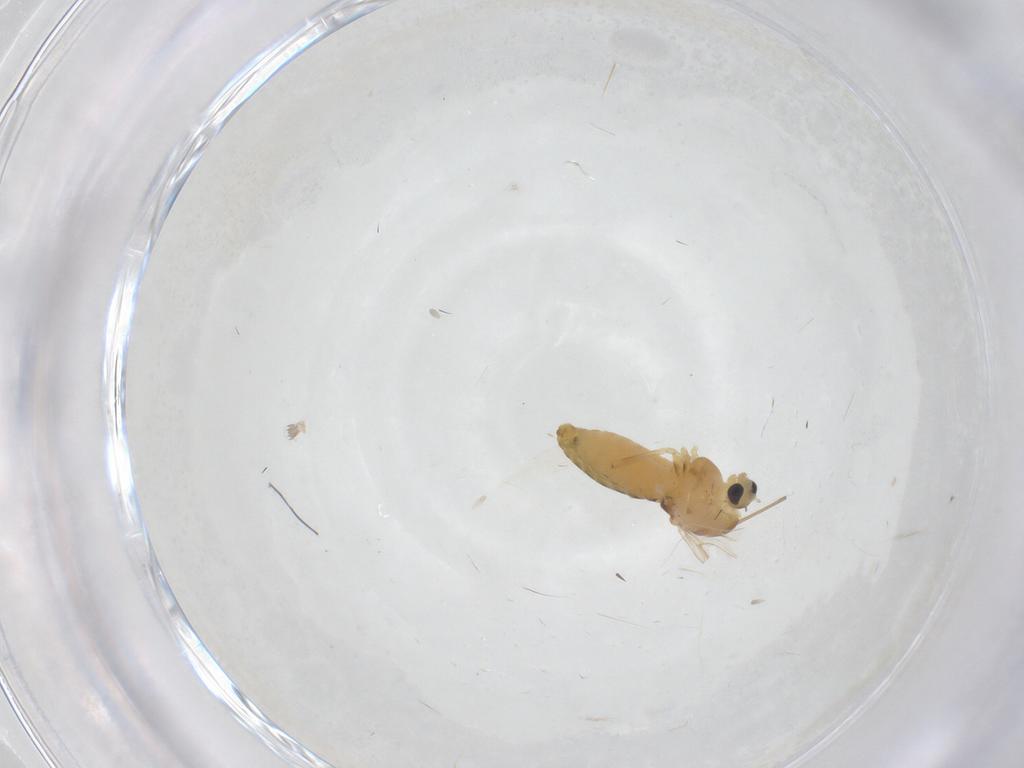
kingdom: Animalia
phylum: Arthropoda
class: Insecta
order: Diptera
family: Chironomidae
